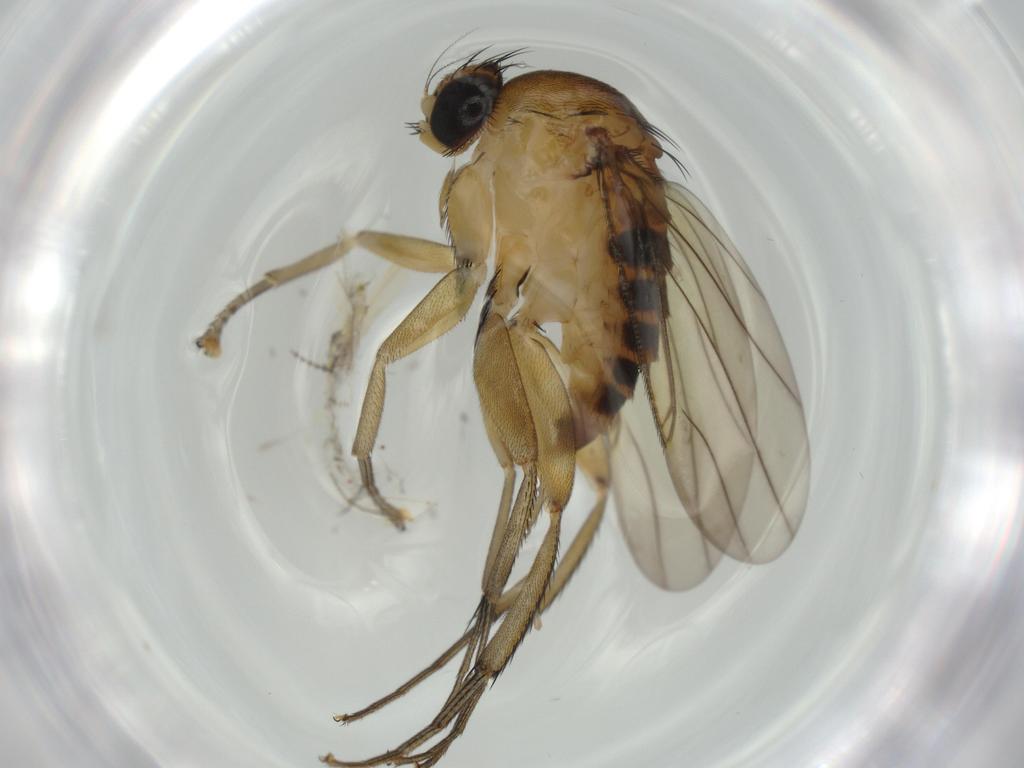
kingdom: Animalia
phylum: Arthropoda
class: Insecta
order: Diptera
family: Cecidomyiidae
